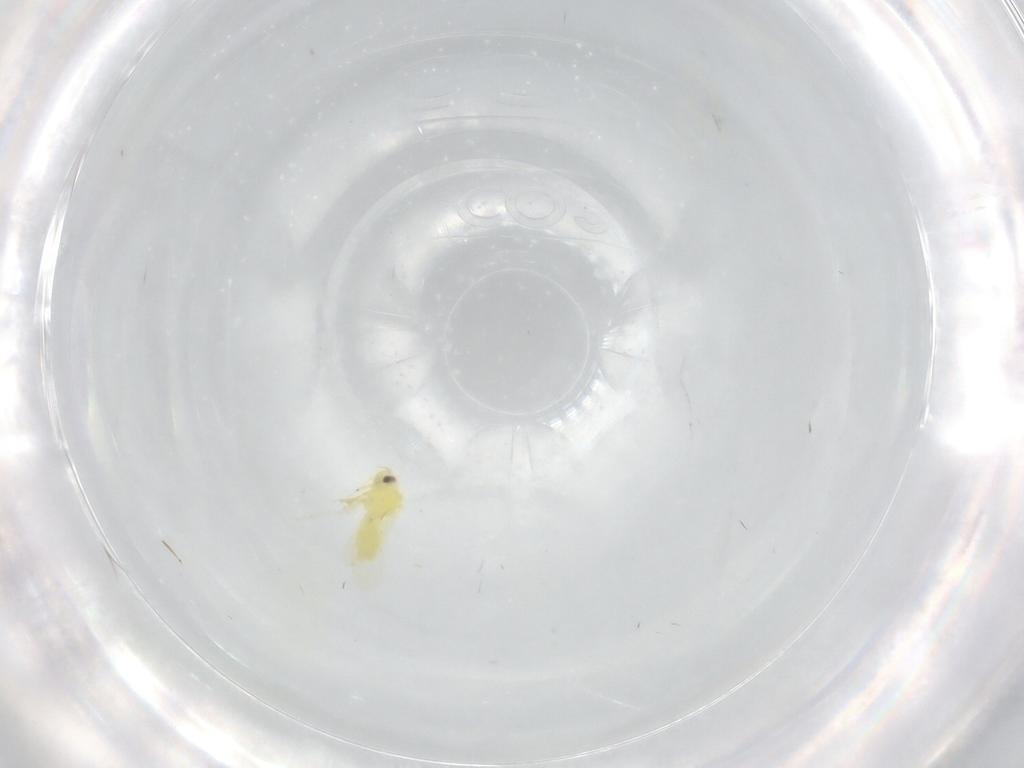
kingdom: Animalia
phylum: Arthropoda
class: Insecta
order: Hemiptera
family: Aleyrodidae
